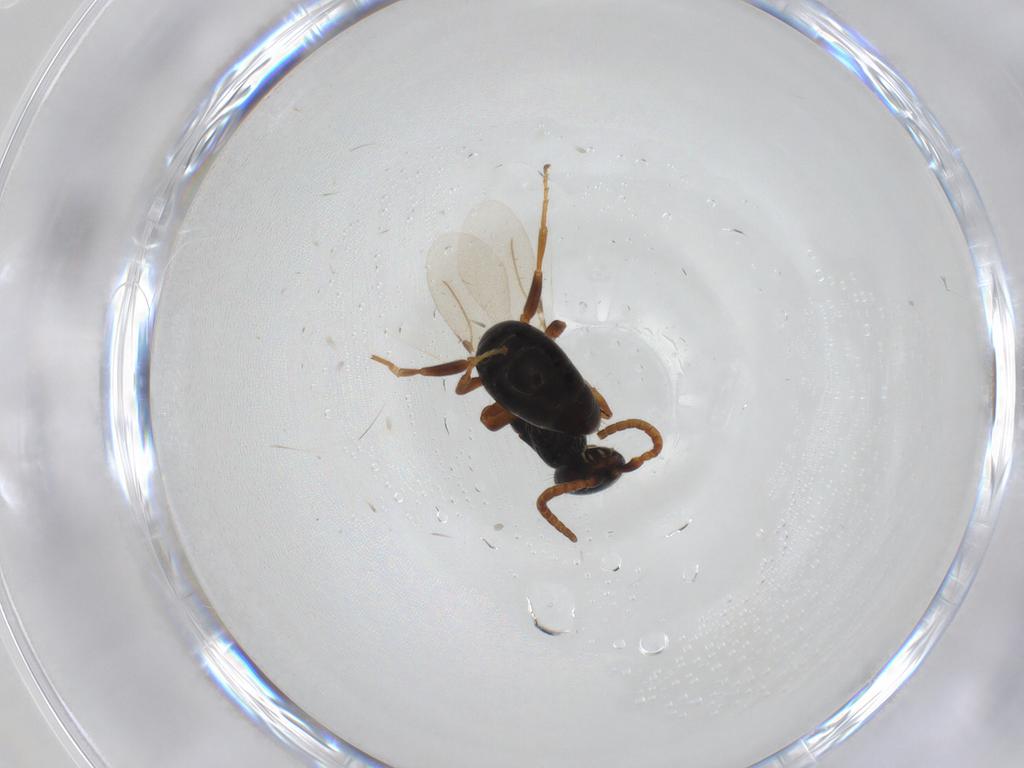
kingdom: Animalia
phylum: Arthropoda
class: Insecta
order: Hymenoptera
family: Bethylidae
